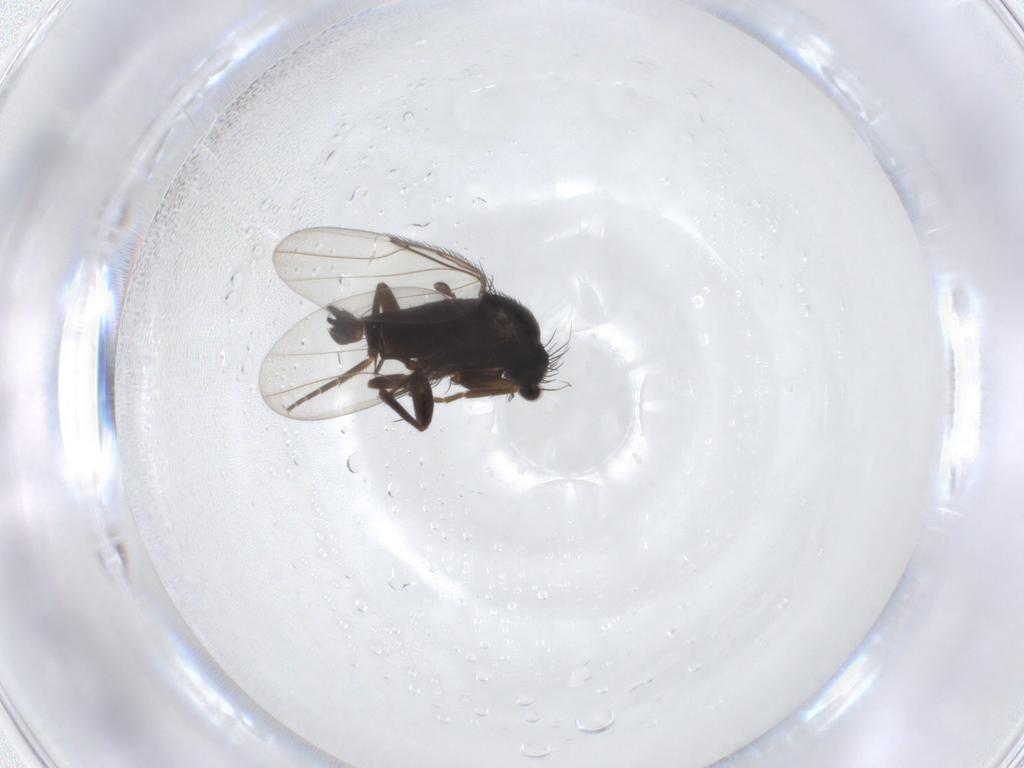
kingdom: Animalia
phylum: Arthropoda
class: Insecta
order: Diptera
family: Phoridae
